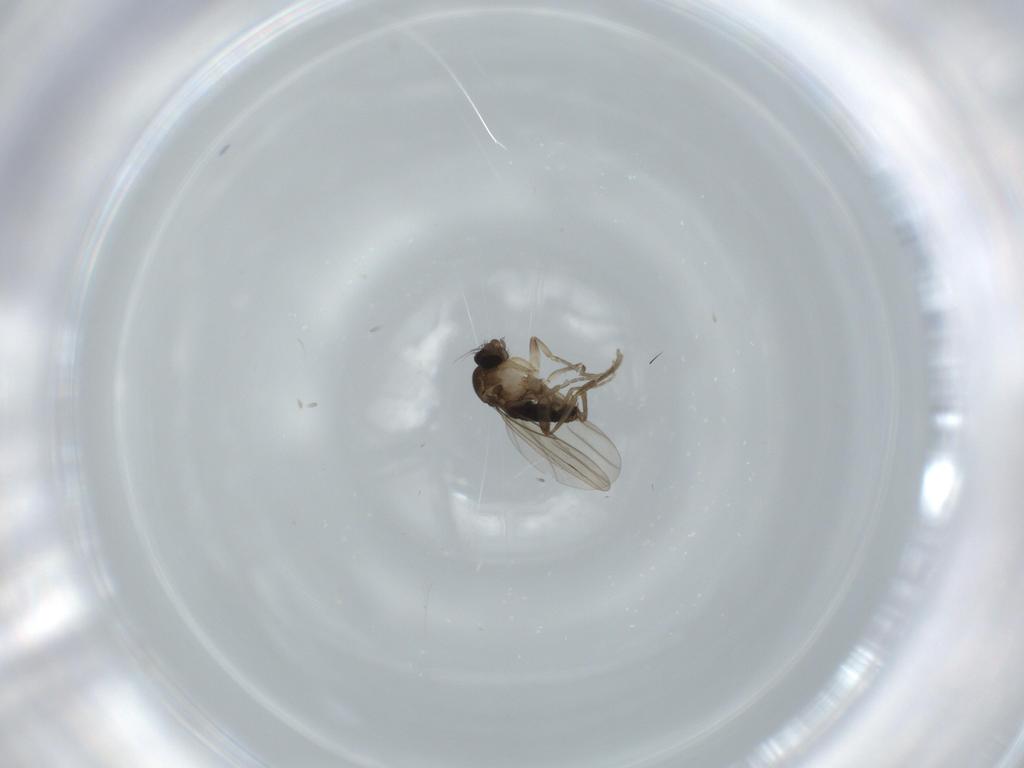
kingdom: Animalia
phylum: Arthropoda
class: Insecta
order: Diptera
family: Phoridae
